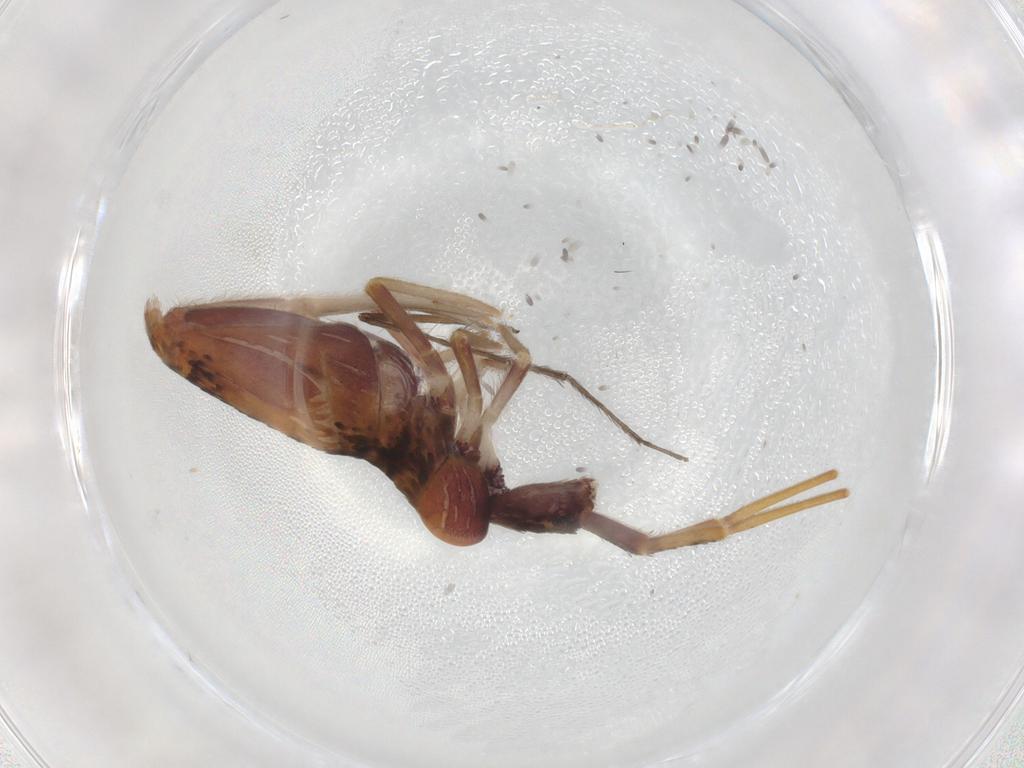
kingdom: Animalia
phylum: Arthropoda
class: Collembola
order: Entomobryomorpha
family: Entomobryidae
